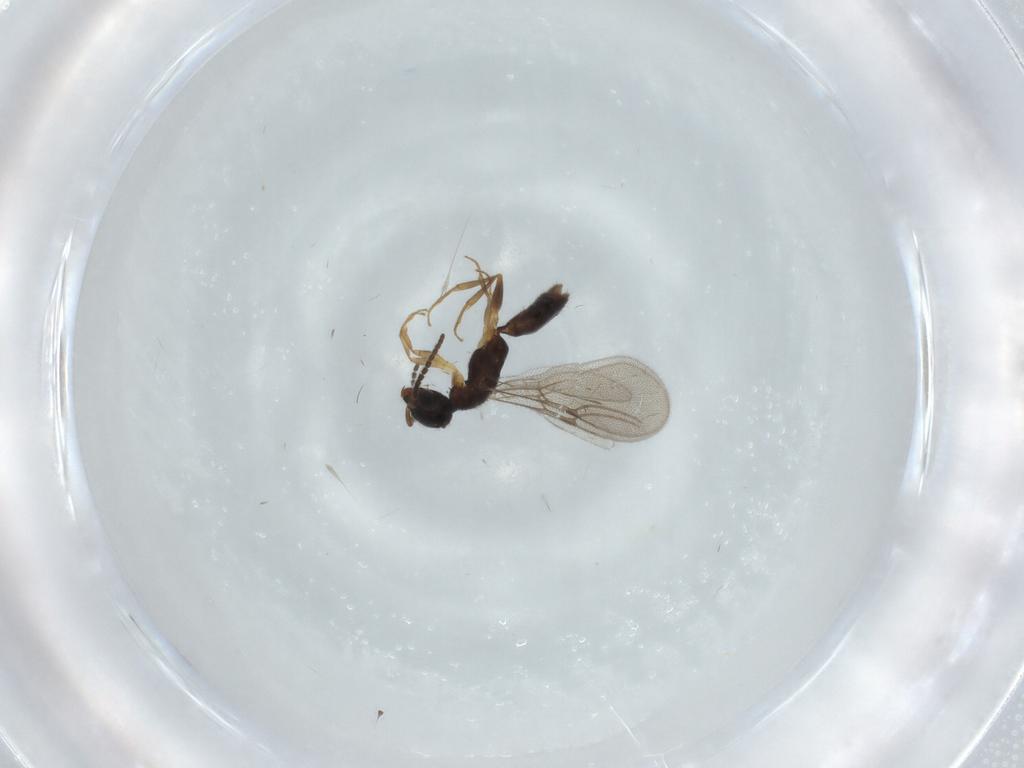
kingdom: Animalia
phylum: Arthropoda
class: Insecta
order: Hymenoptera
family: Bethylidae
